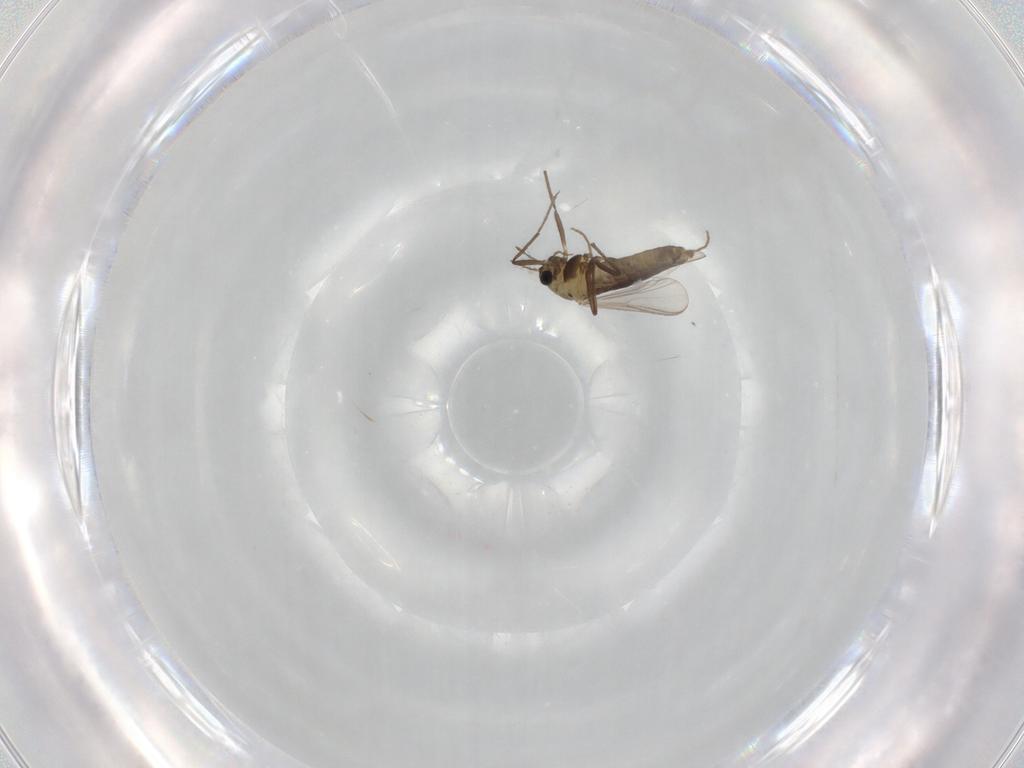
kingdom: Animalia
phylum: Arthropoda
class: Insecta
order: Diptera
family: Chironomidae
